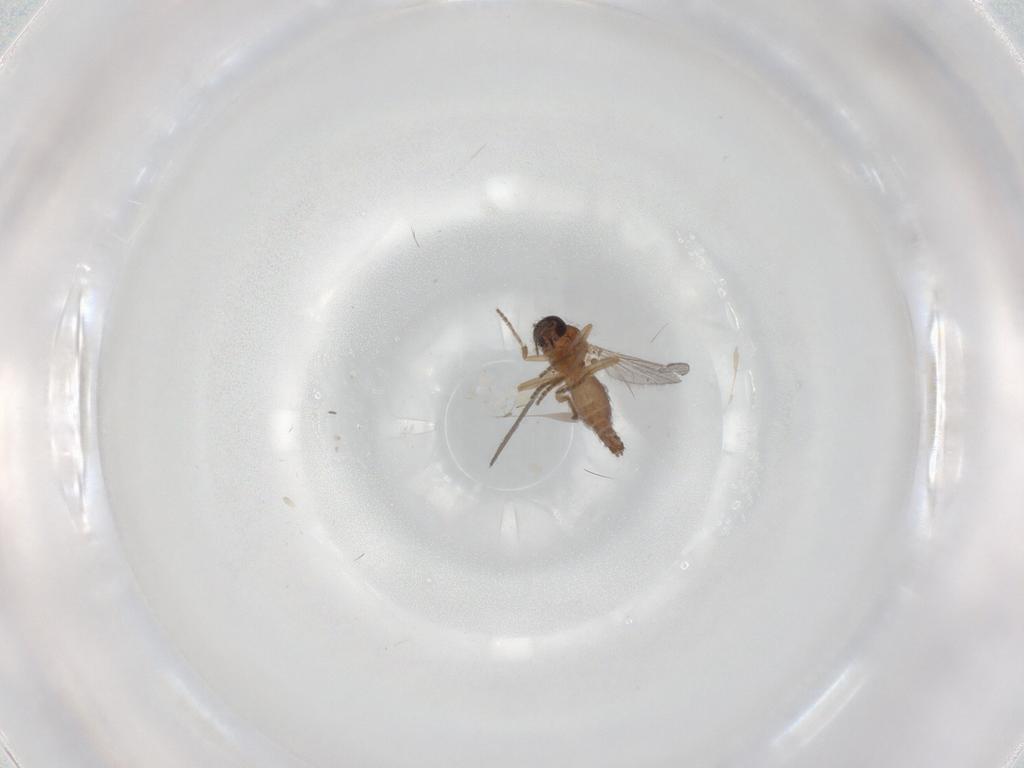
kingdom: Animalia
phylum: Arthropoda
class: Insecta
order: Diptera
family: Ceratopogonidae
